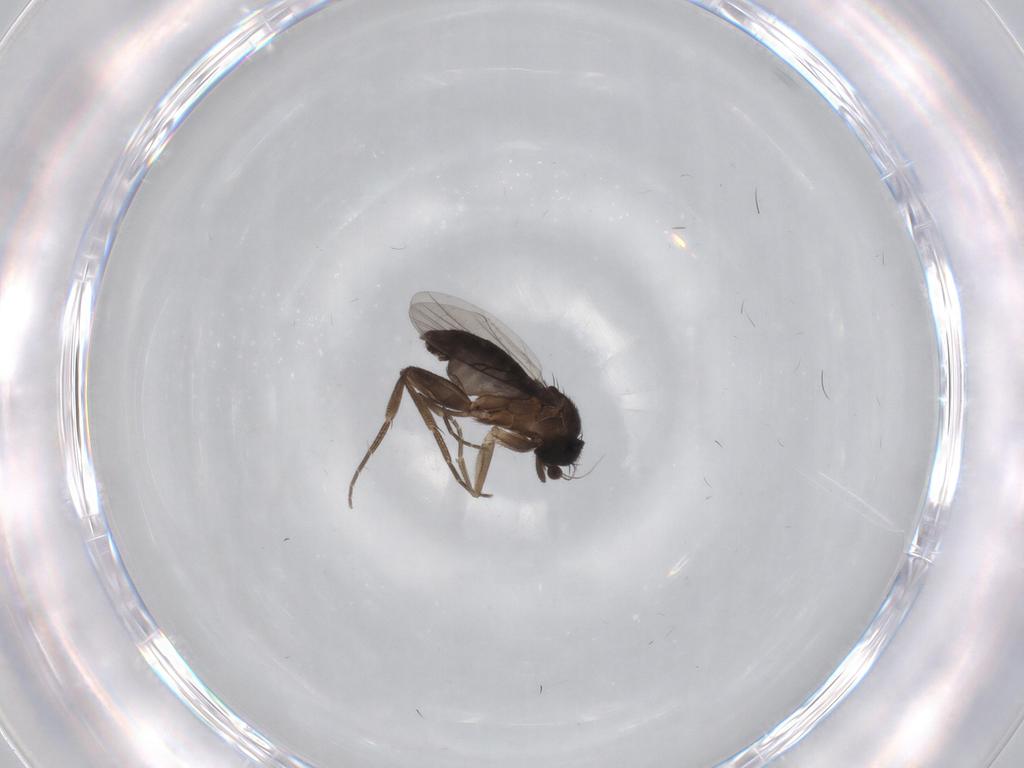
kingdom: Animalia
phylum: Arthropoda
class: Insecta
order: Diptera
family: Phoridae
